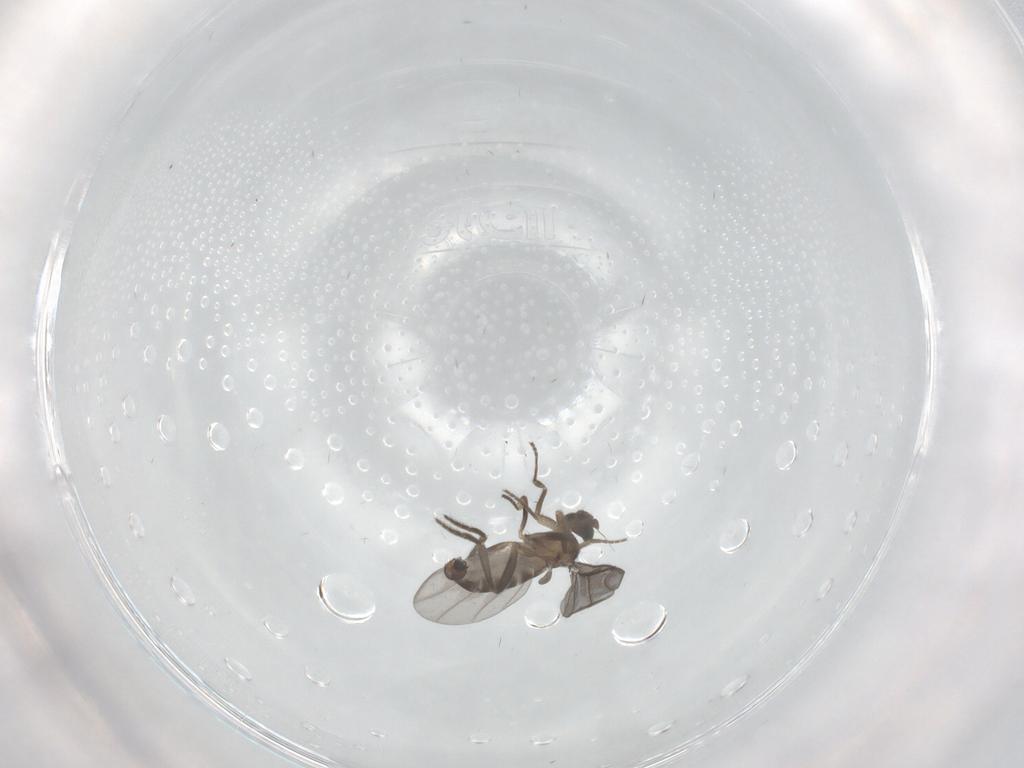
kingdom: Animalia
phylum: Arthropoda
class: Insecta
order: Diptera
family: Phoridae
